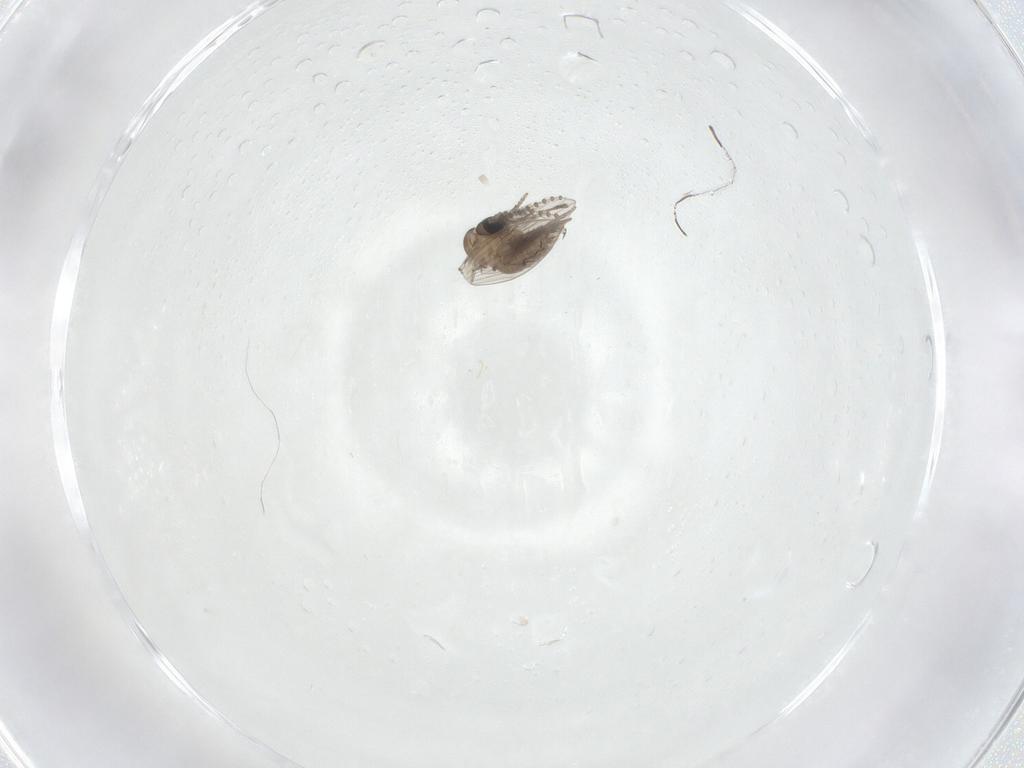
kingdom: Animalia
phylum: Arthropoda
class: Insecta
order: Diptera
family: Psychodidae
